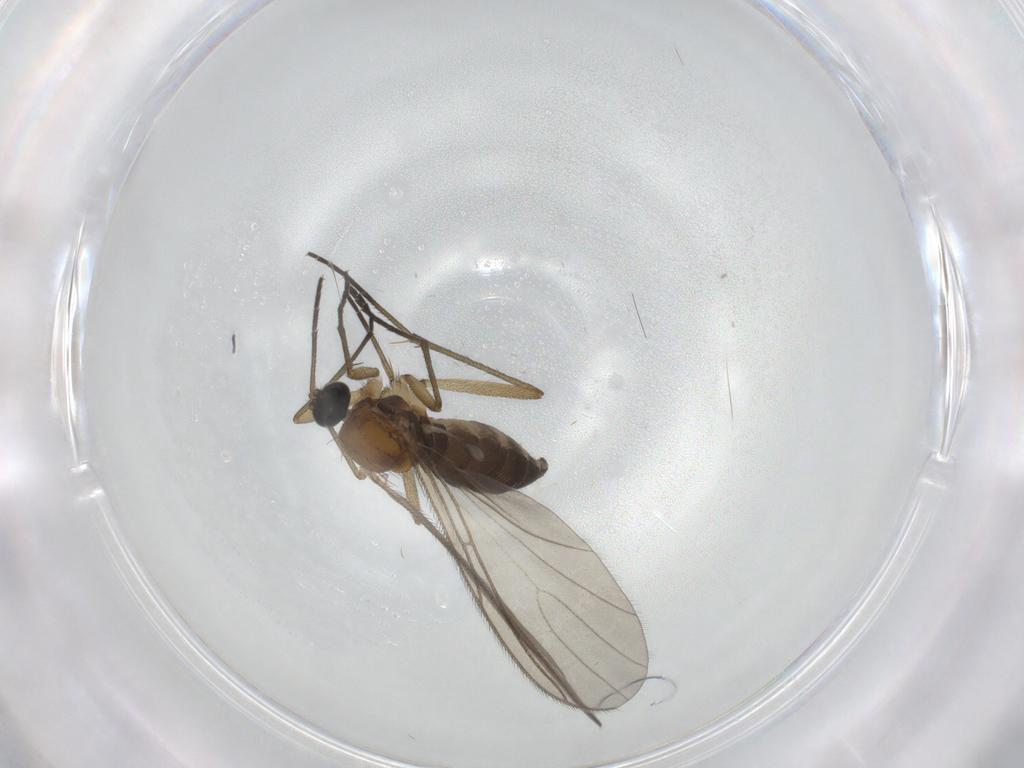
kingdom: Animalia
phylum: Arthropoda
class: Insecta
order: Diptera
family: Sciaridae
